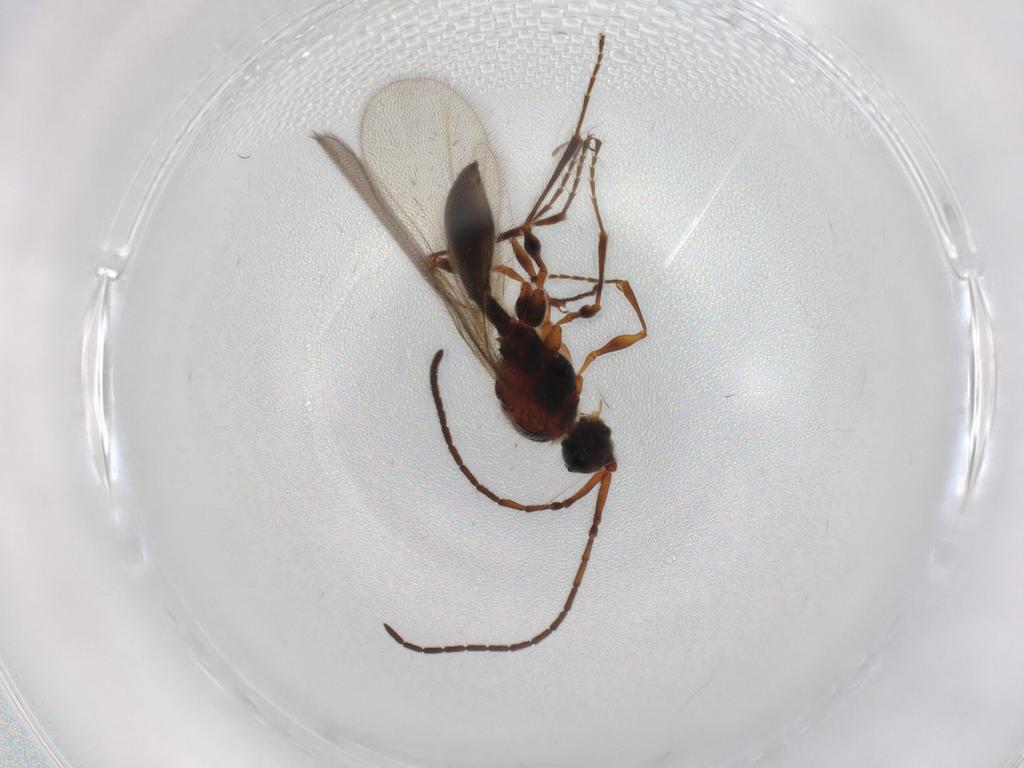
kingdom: Animalia
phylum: Arthropoda
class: Insecta
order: Hymenoptera
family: Diapriidae
